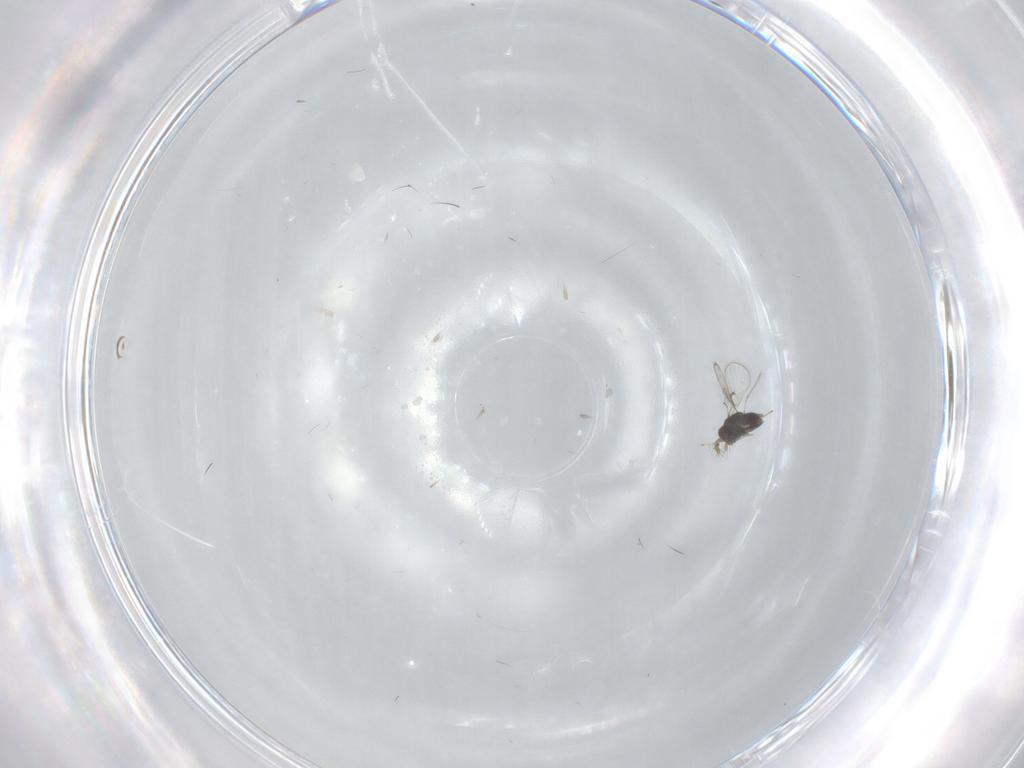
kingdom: Animalia
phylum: Arthropoda
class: Insecta
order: Hymenoptera
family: Trichogrammatidae
